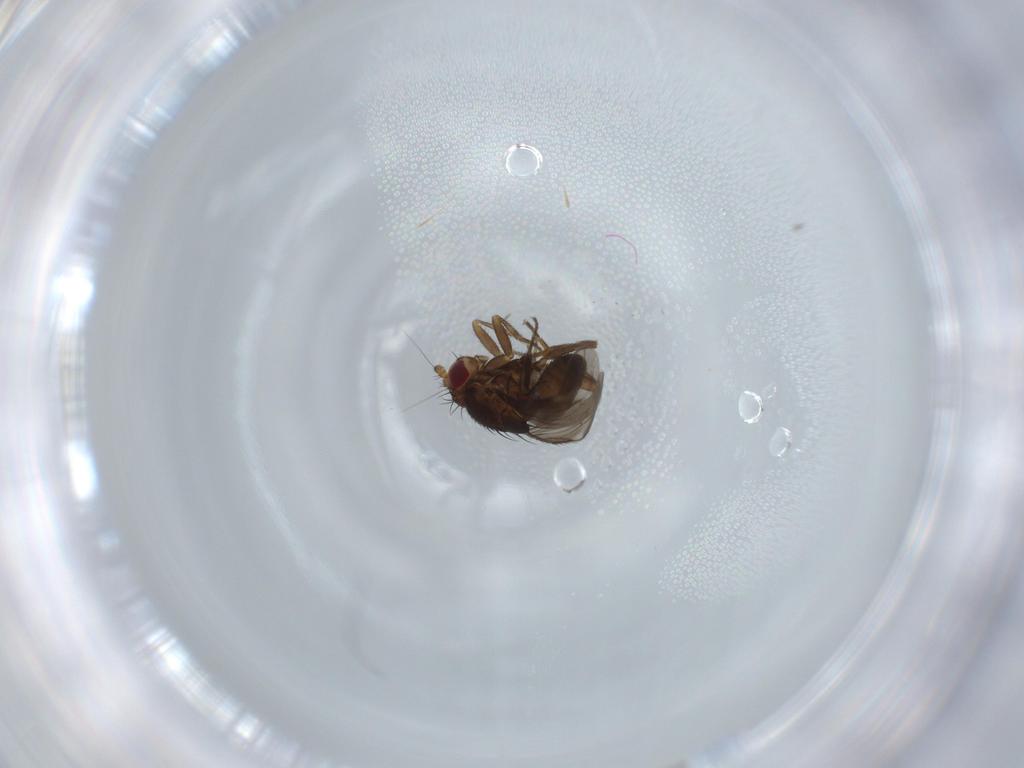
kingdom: Animalia
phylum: Arthropoda
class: Insecta
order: Diptera
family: Sphaeroceridae
